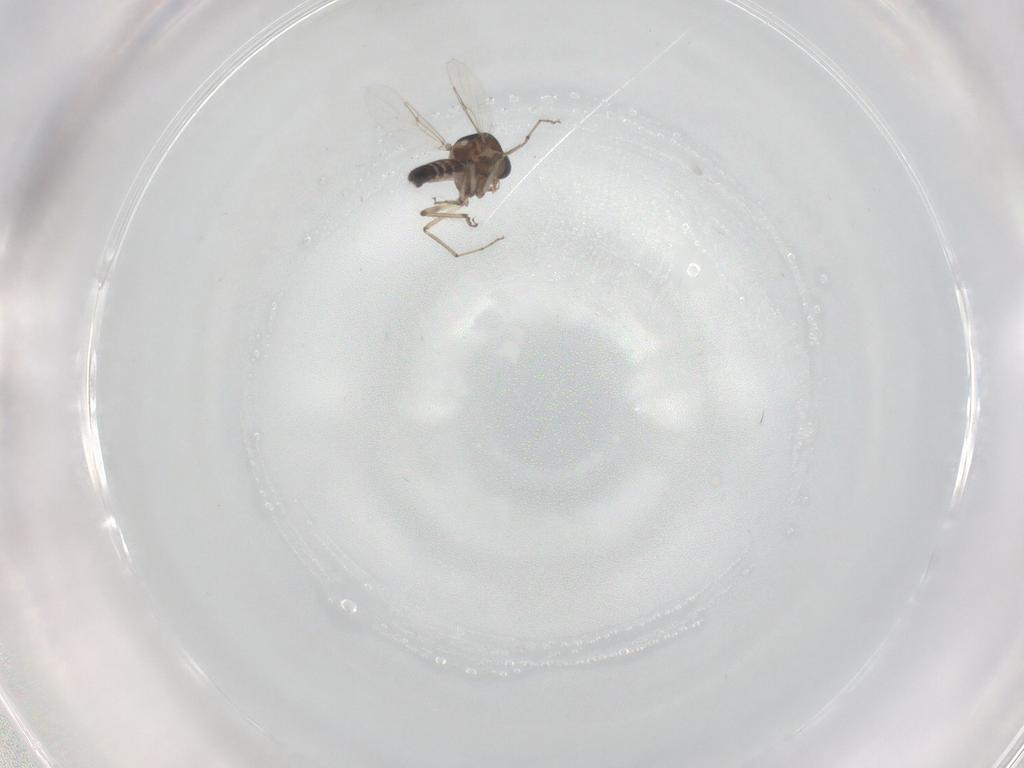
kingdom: Animalia
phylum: Arthropoda
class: Insecta
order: Diptera
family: Ceratopogonidae
